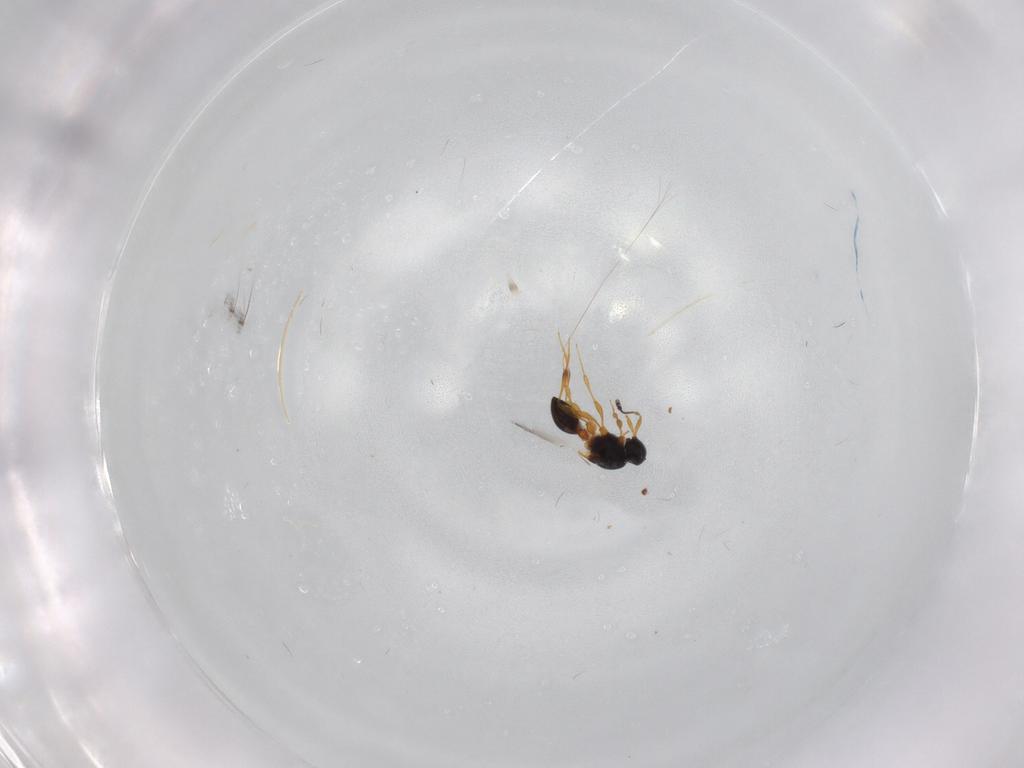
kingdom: Animalia
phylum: Arthropoda
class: Insecta
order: Hymenoptera
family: Platygastridae
